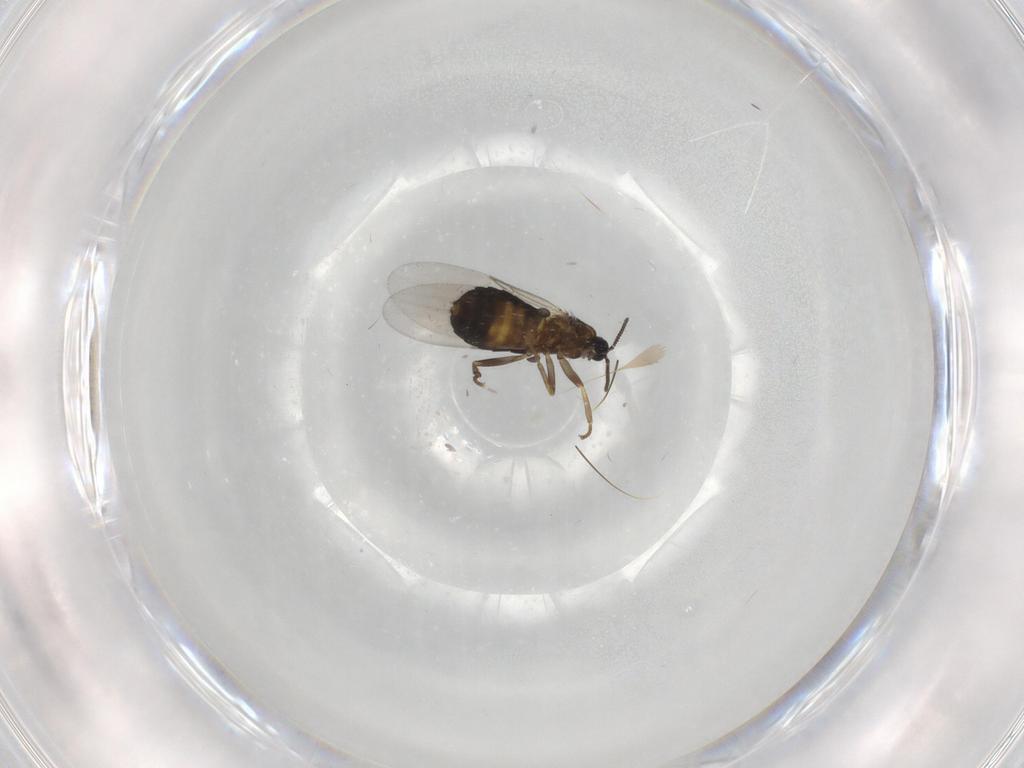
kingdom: Animalia
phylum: Arthropoda
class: Insecta
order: Diptera
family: Scatopsidae
